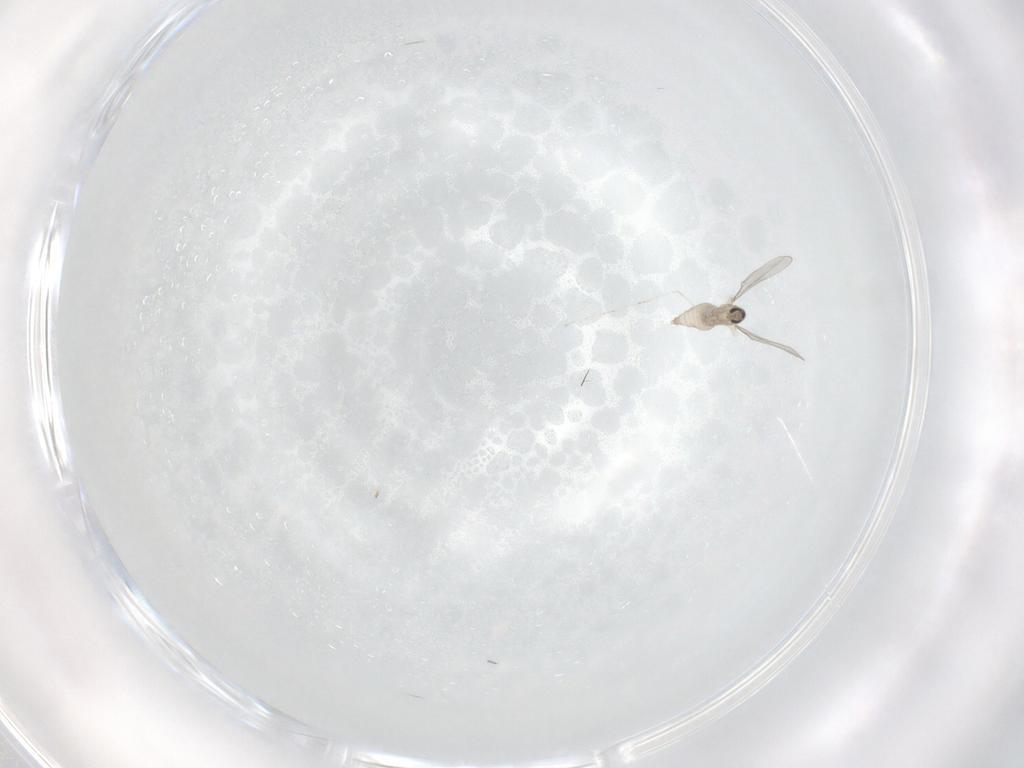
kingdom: Animalia
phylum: Arthropoda
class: Insecta
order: Diptera
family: Cecidomyiidae
